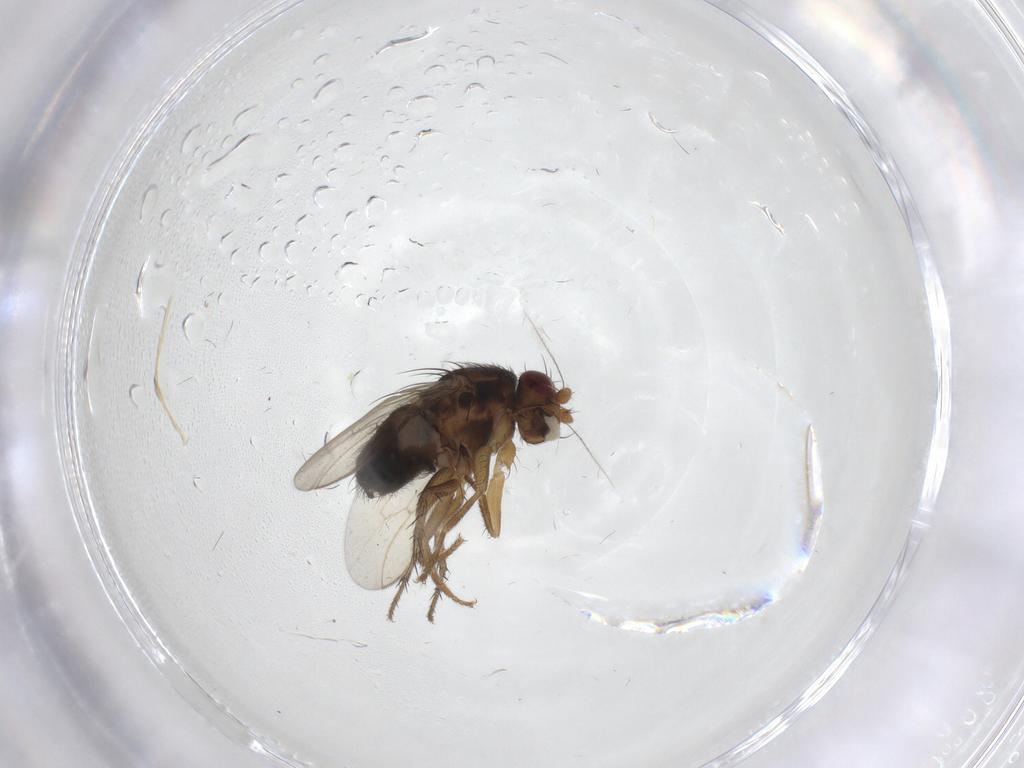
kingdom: Animalia
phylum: Arthropoda
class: Insecta
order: Diptera
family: Sphaeroceridae
